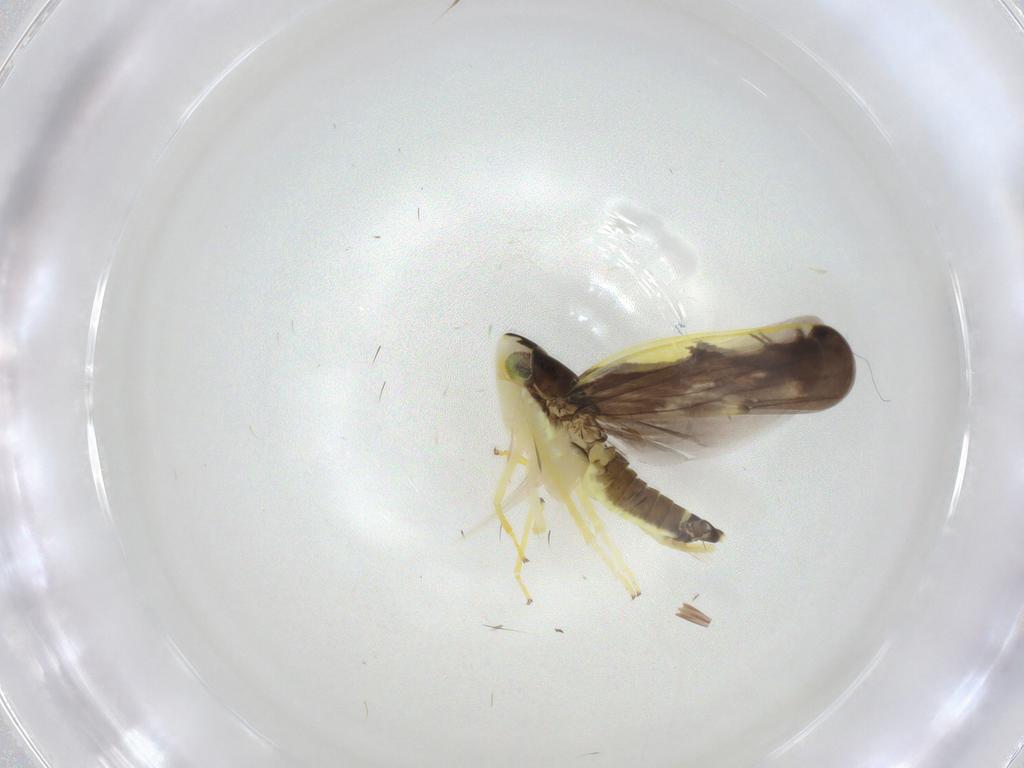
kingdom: Animalia
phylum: Arthropoda
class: Insecta
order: Hemiptera
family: Cicadellidae
